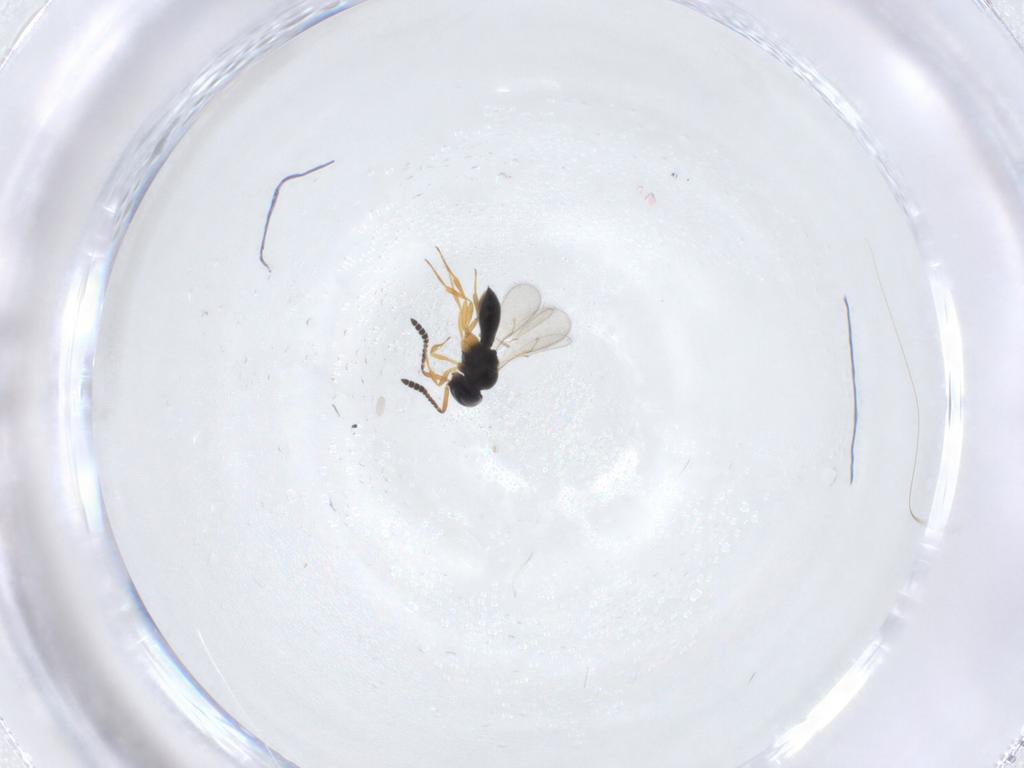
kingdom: Animalia
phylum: Arthropoda
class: Insecta
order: Hymenoptera
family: Scelionidae
